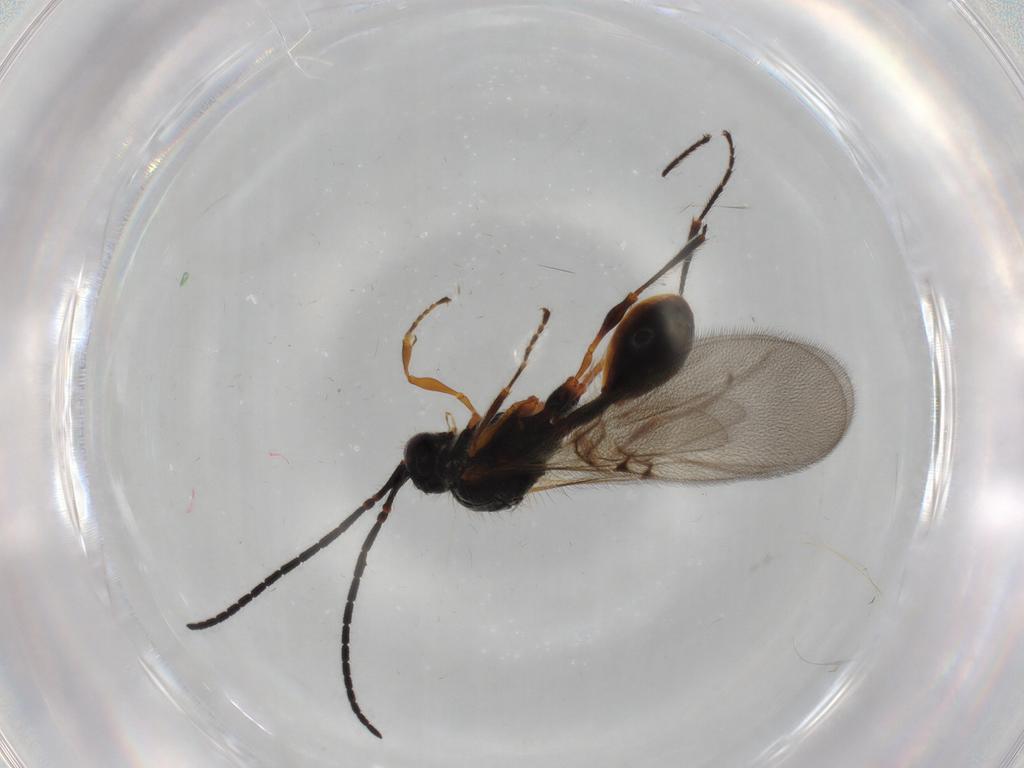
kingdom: Animalia
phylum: Arthropoda
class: Insecta
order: Hymenoptera
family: Diapriidae
